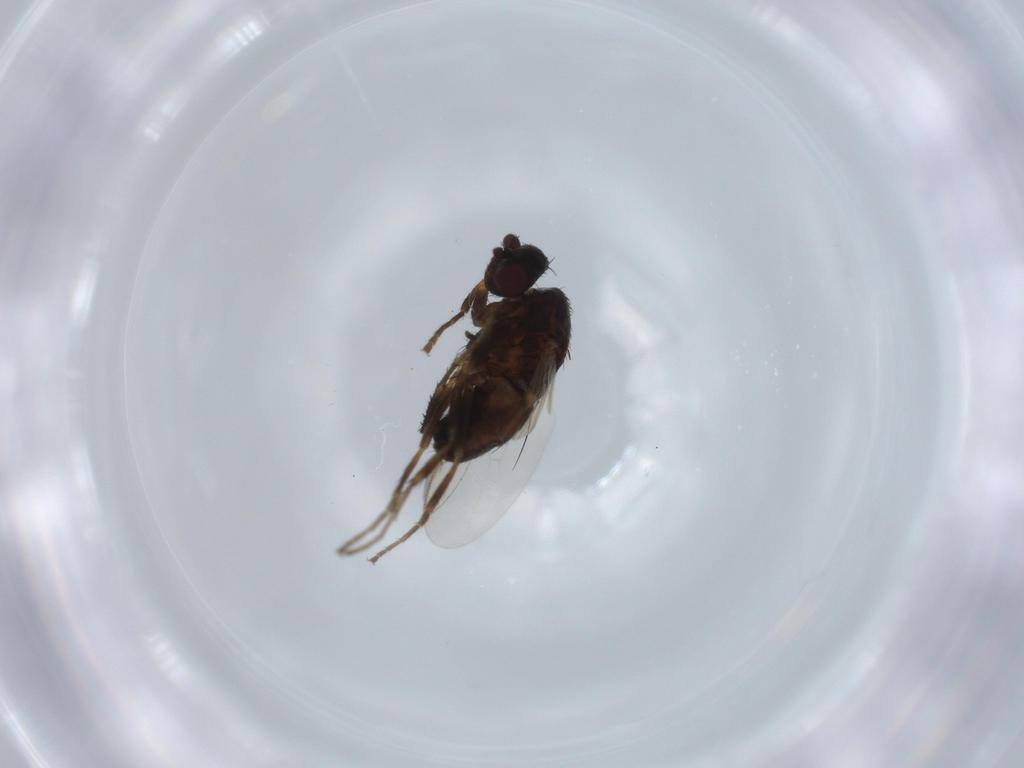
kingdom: Animalia
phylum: Arthropoda
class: Insecta
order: Diptera
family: Sphaeroceridae
